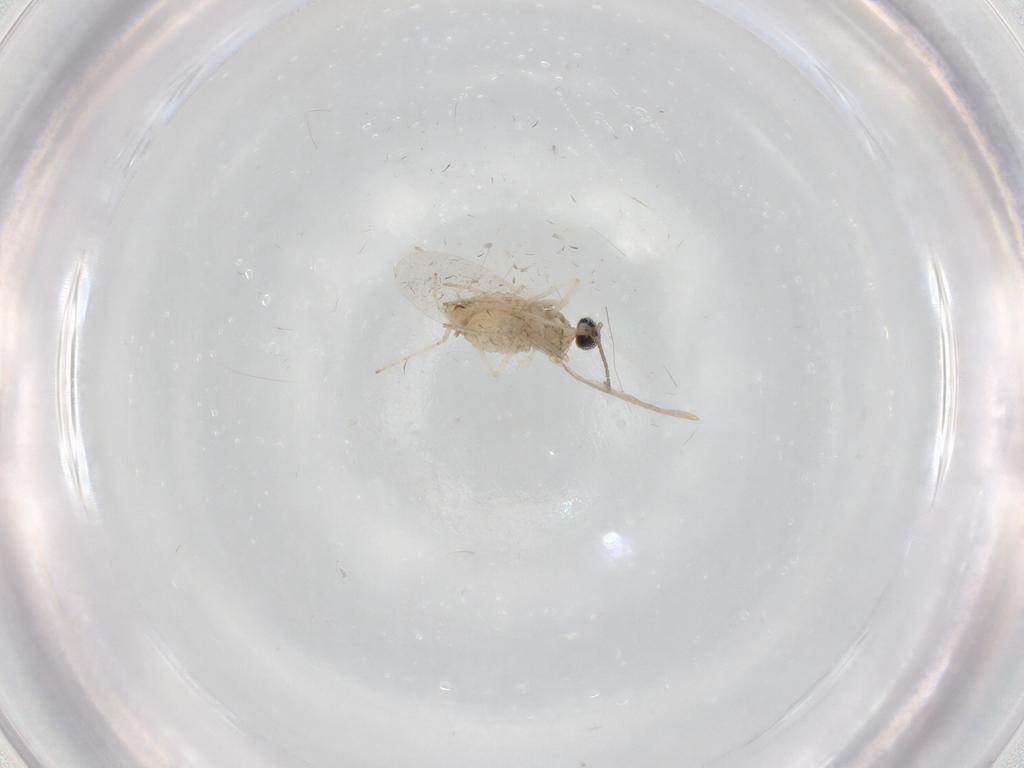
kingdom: Animalia
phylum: Arthropoda
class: Insecta
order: Diptera
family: Cecidomyiidae
